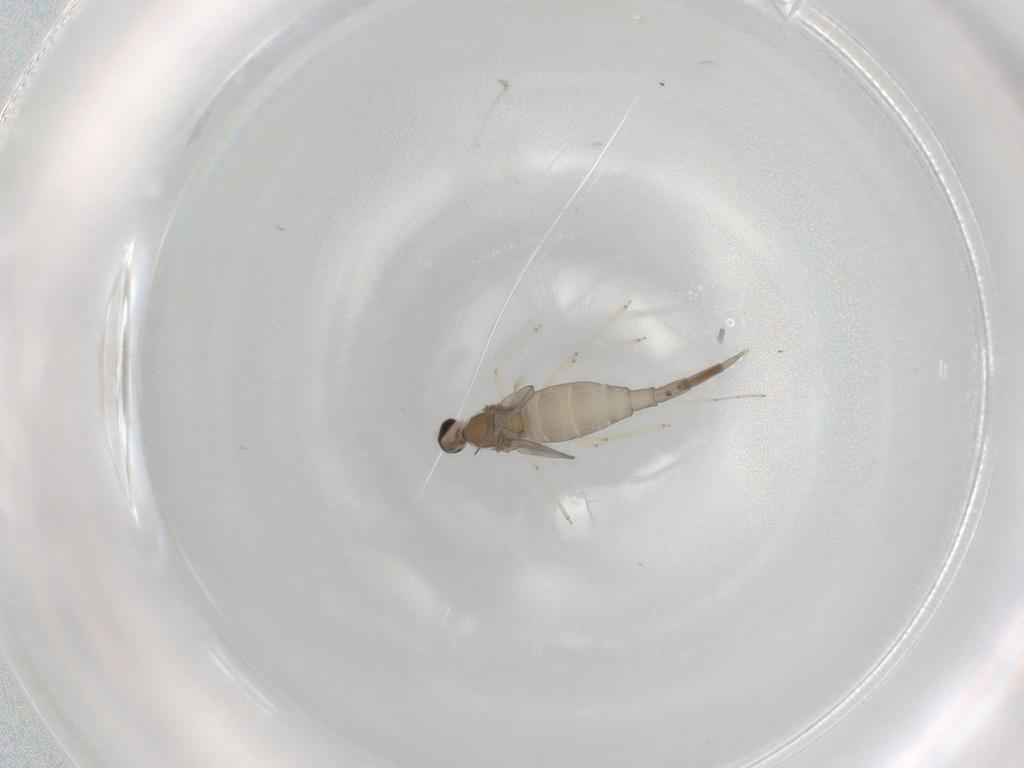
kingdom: Animalia
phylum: Arthropoda
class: Insecta
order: Diptera
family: Cecidomyiidae
